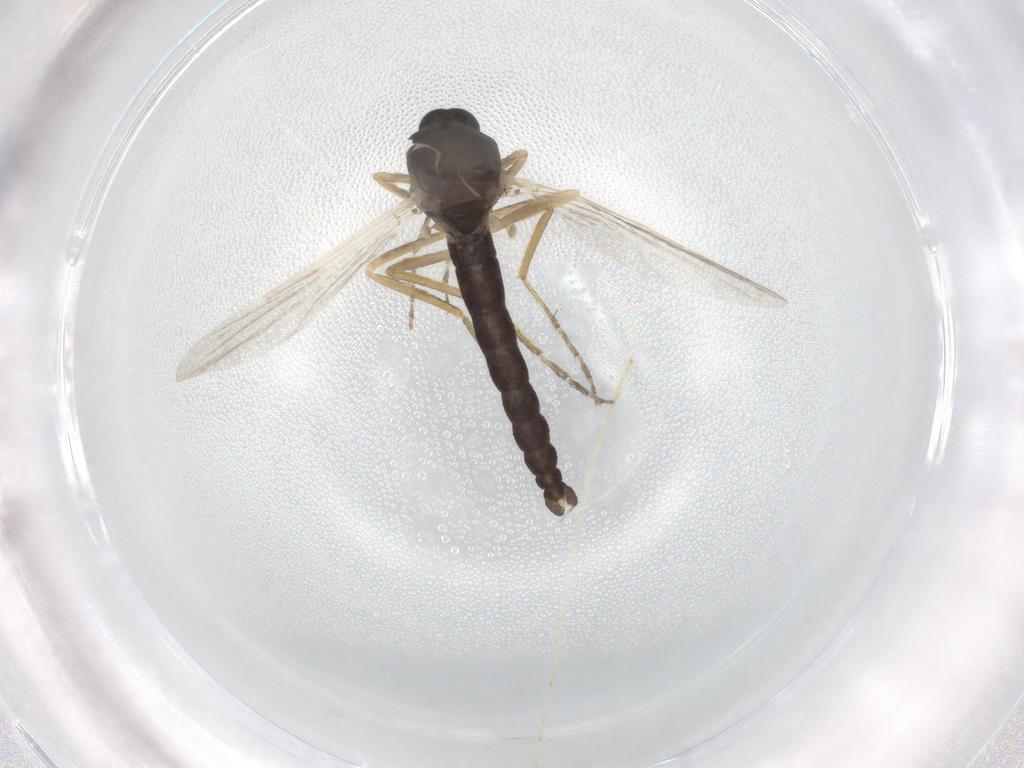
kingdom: Animalia
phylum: Arthropoda
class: Insecta
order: Diptera
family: Ceratopogonidae
